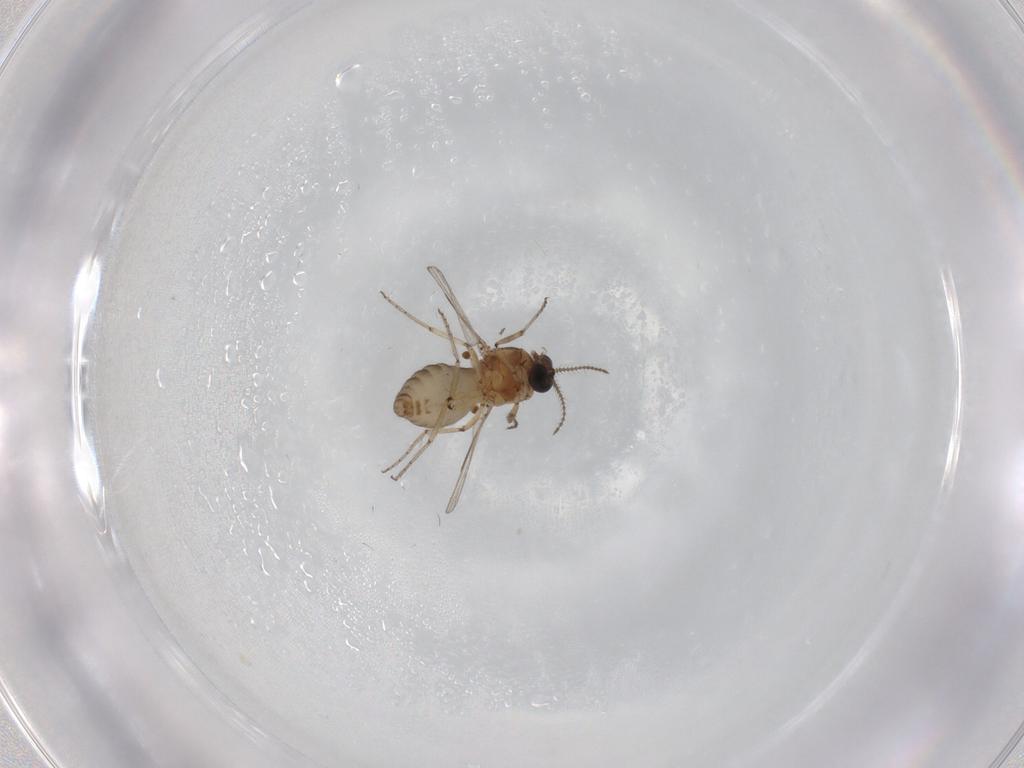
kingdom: Animalia
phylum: Arthropoda
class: Insecta
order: Diptera
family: Ceratopogonidae
